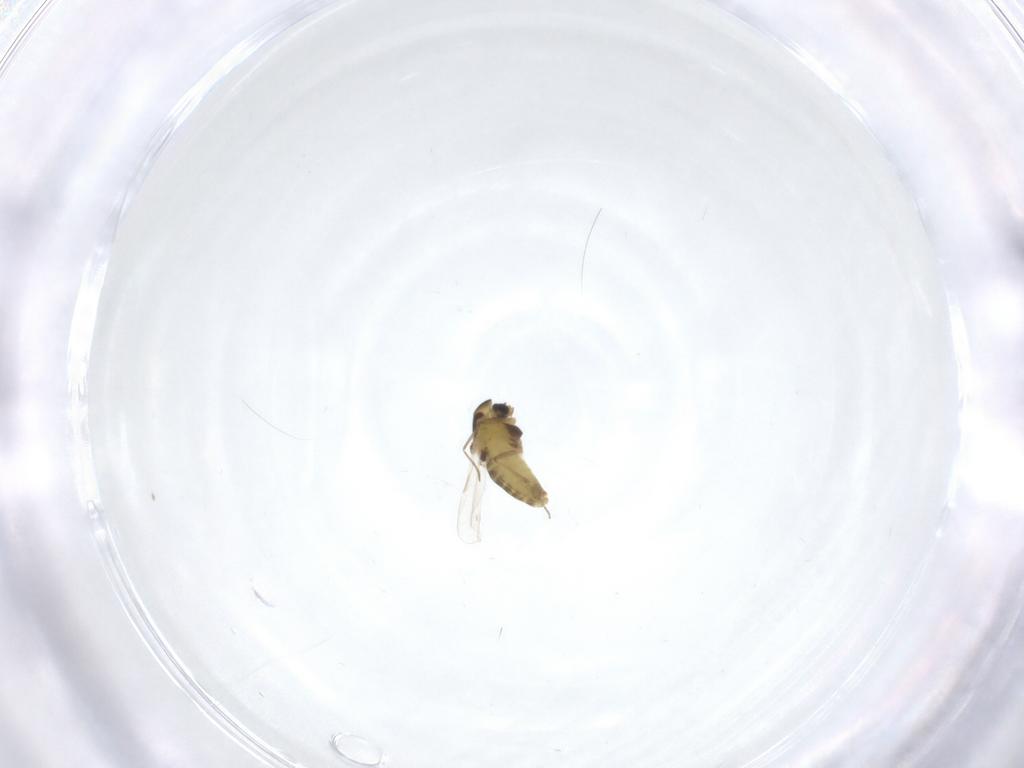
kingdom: Animalia
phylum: Arthropoda
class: Insecta
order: Diptera
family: Chironomidae
